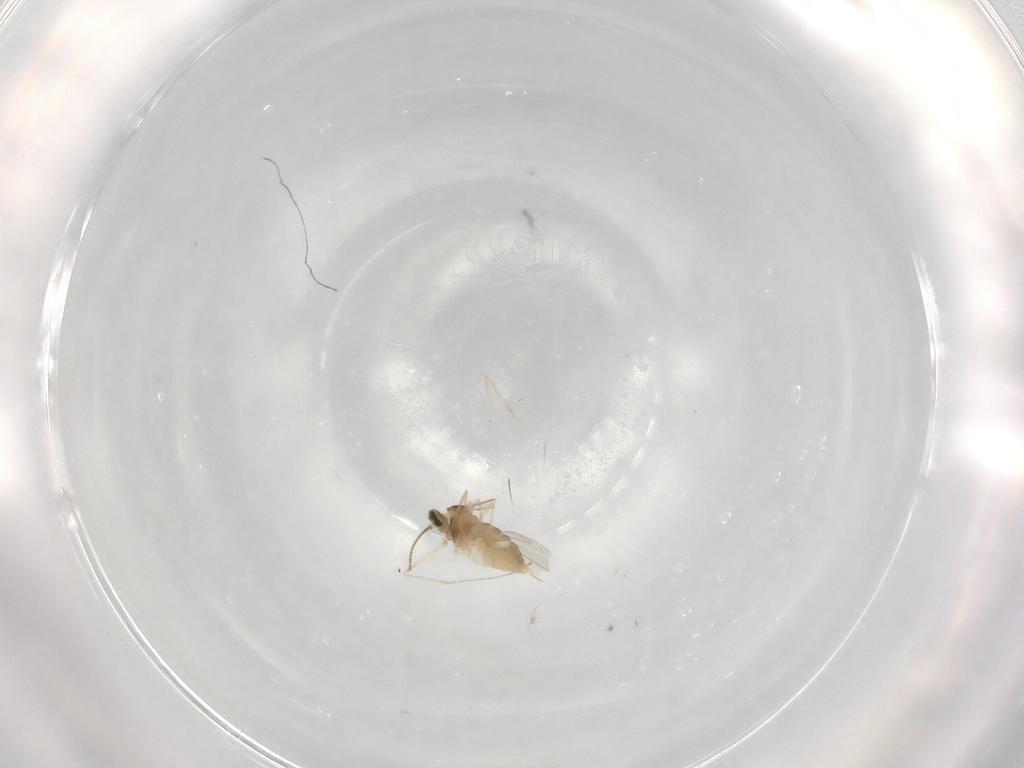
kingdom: Animalia
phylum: Arthropoda
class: Insecta
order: Diptera
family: Cecidomyiidae
